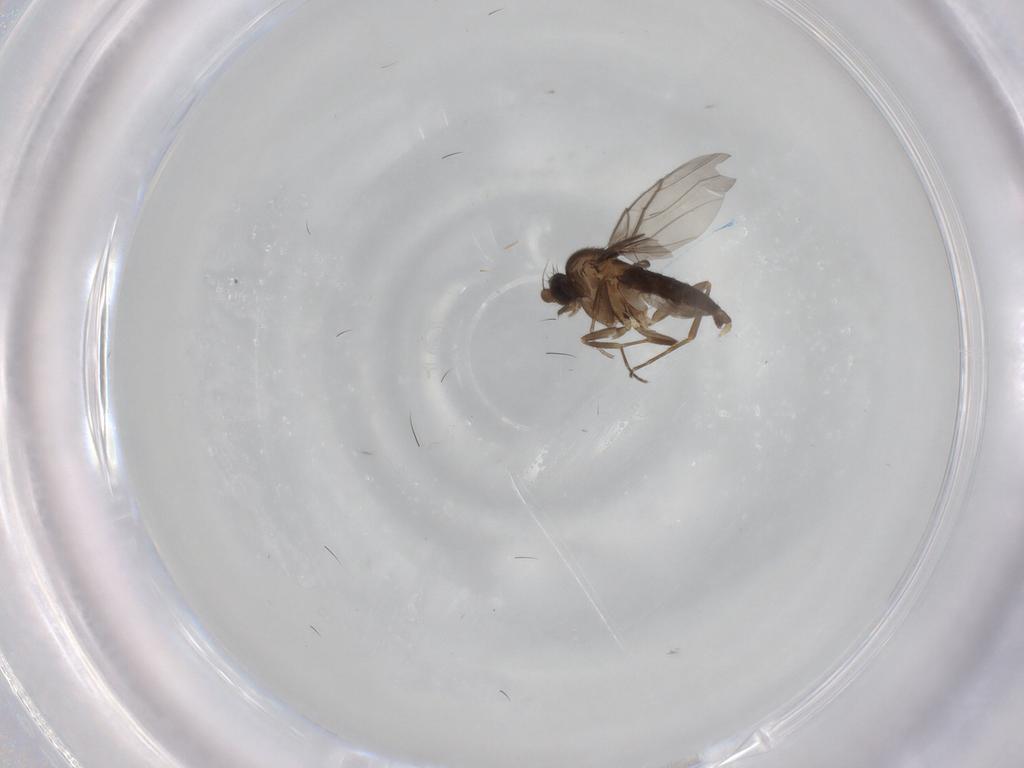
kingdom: Animalia
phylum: Arthropoda
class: Insecta
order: Diptera
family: Phoridae
